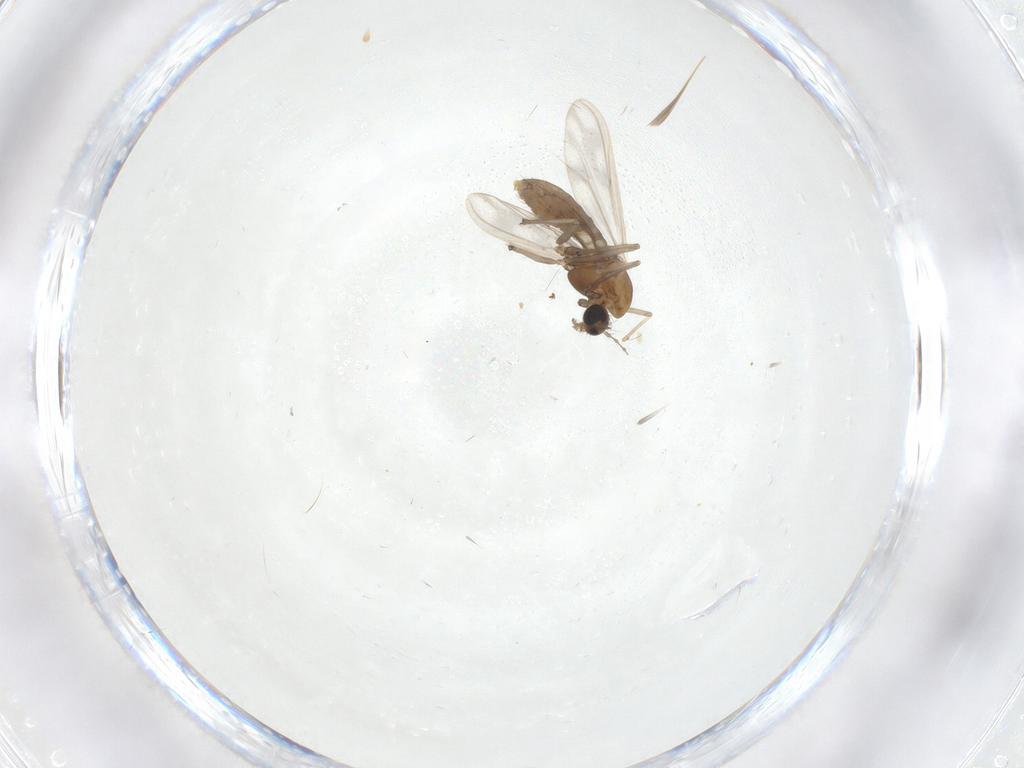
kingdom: Animalia
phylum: Arthropoda
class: Insecta
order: Diptera
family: Chironomidae
